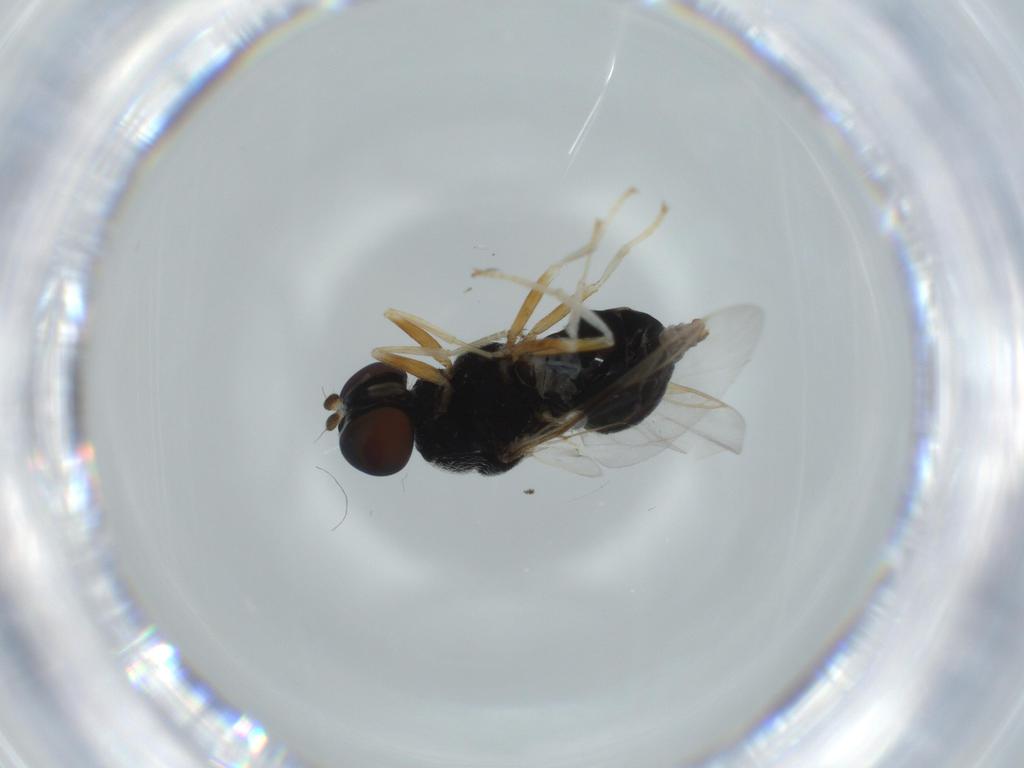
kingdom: Animalia
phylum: Arthropoda
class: Insecta
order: Diptera
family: Stratiomyidae
